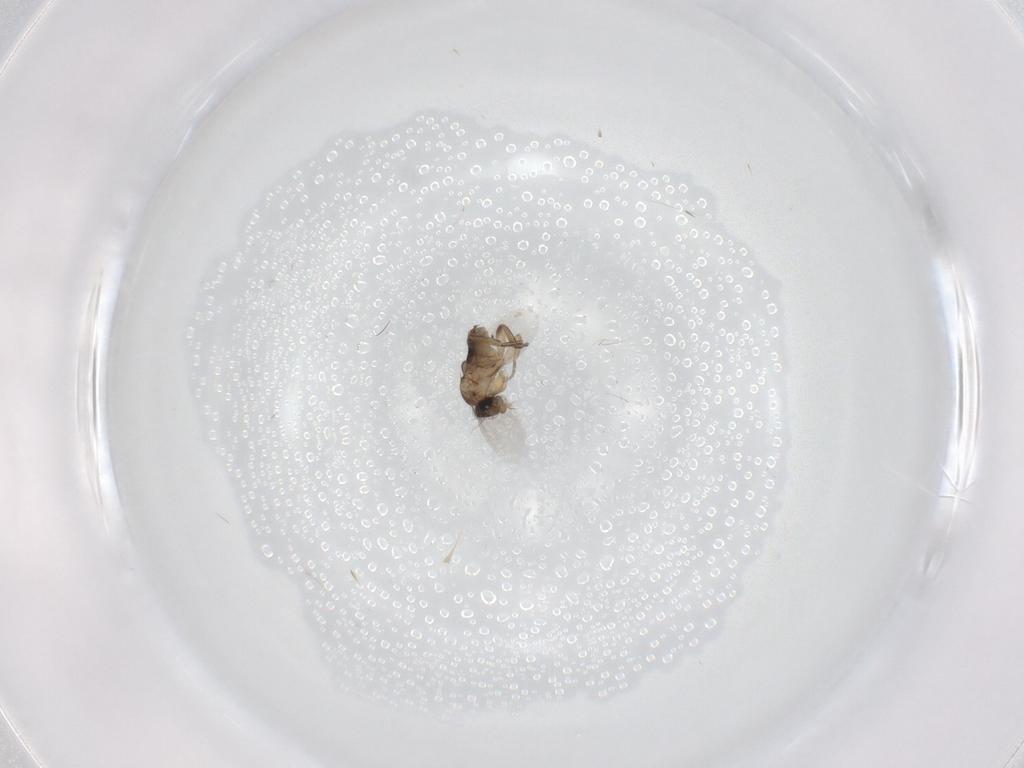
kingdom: Animalia
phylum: Arthropoda
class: Insecta
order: Diptera
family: Phoridae
